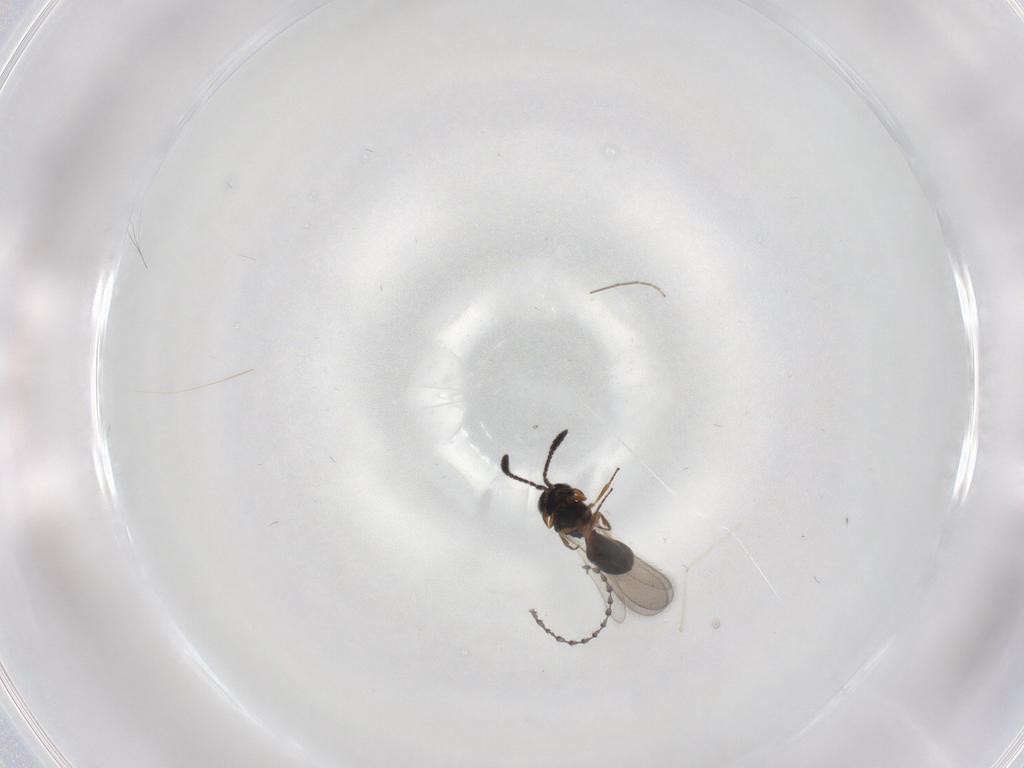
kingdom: Animalia
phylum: Arthropoda
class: Insecta
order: Hymenoptera
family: Scelionidae
